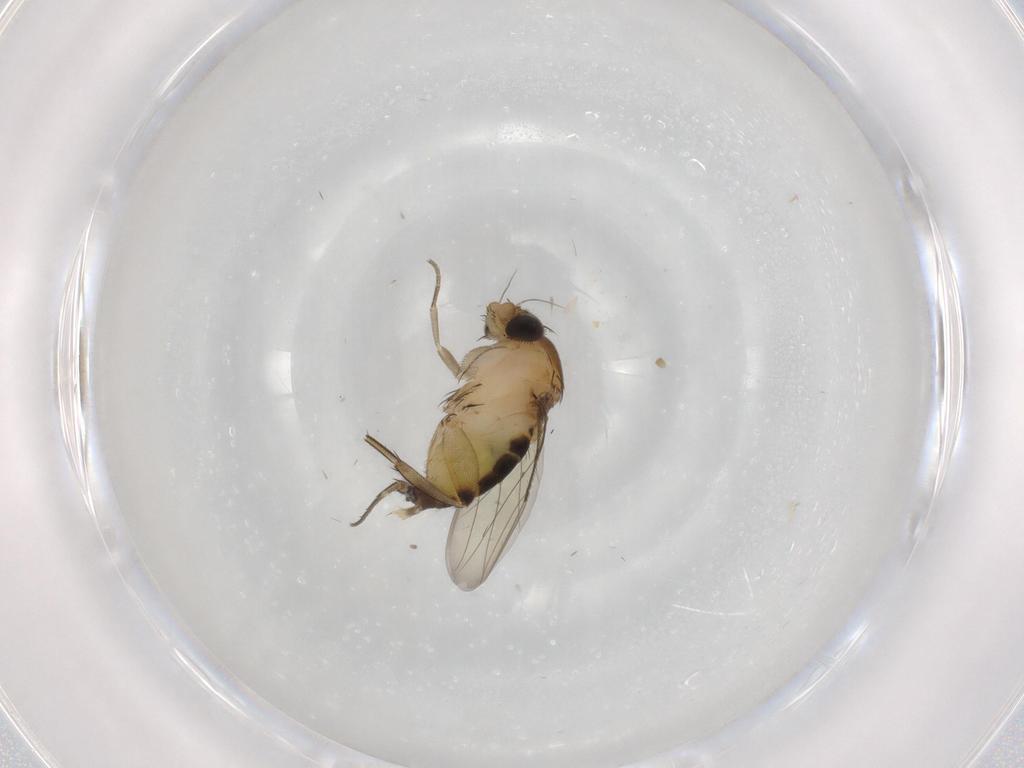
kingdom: Animalia
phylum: Arthropoda
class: Insecta
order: Diptera
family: Phoridae
